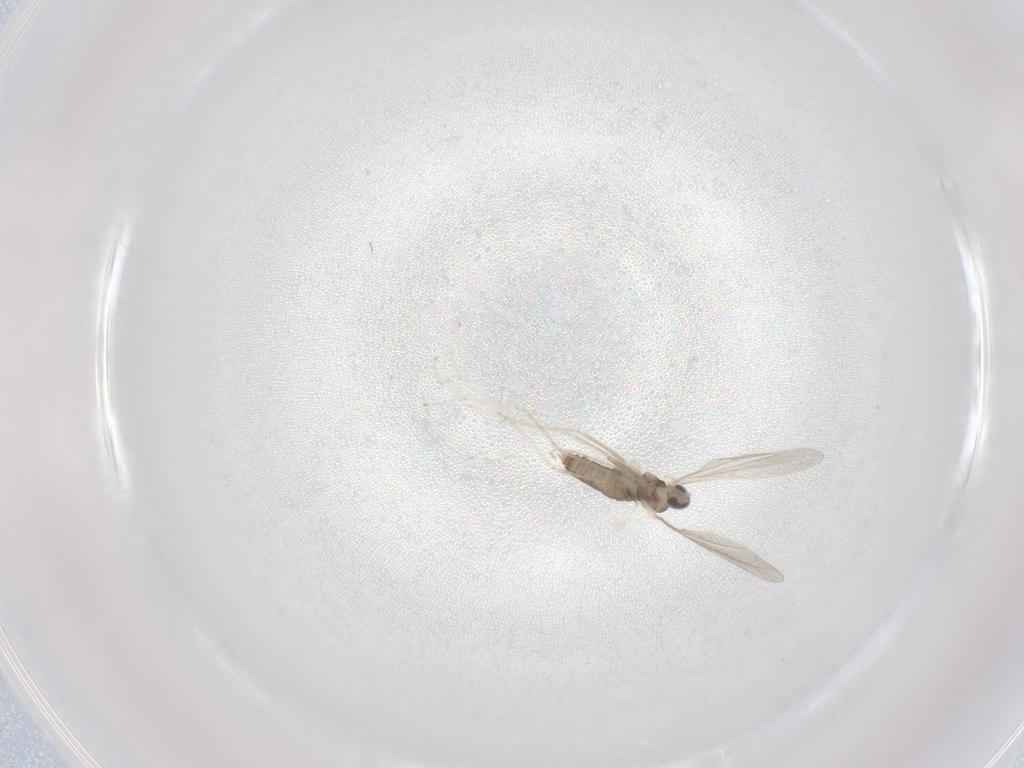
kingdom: Animalia
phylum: Arthropoda
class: Insecta
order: Diptera
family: Cecidomyiidae
